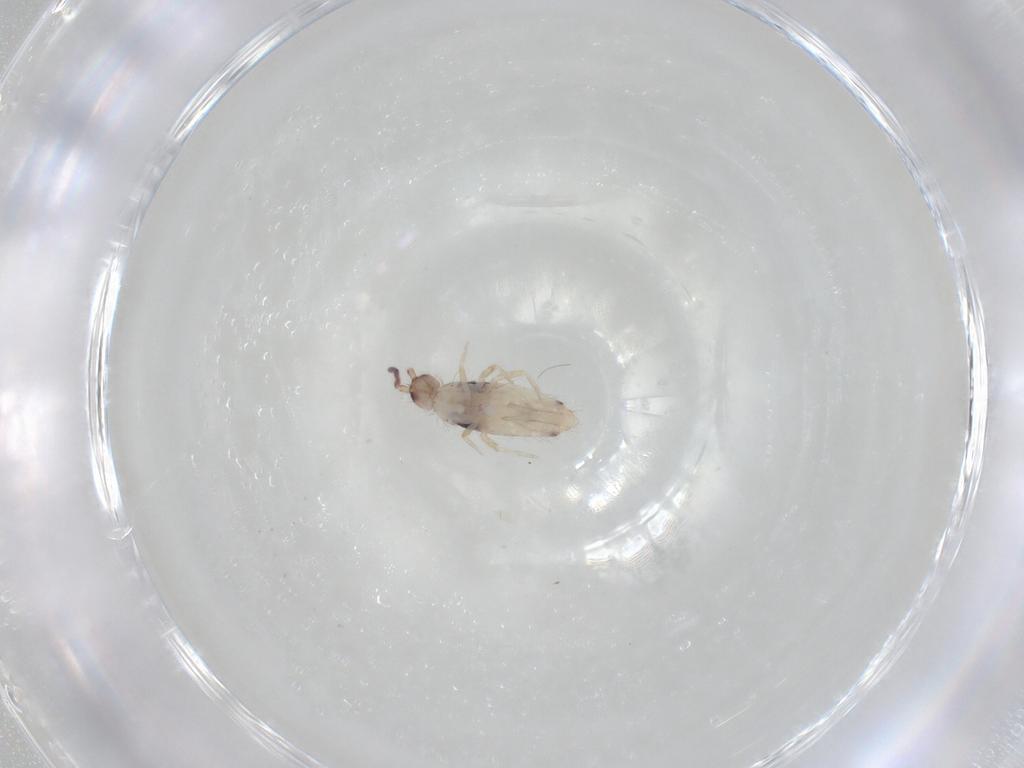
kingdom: Animalia
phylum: Arthropoda
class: Collembola
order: Entomobryomorpha
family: Entomobryidae
